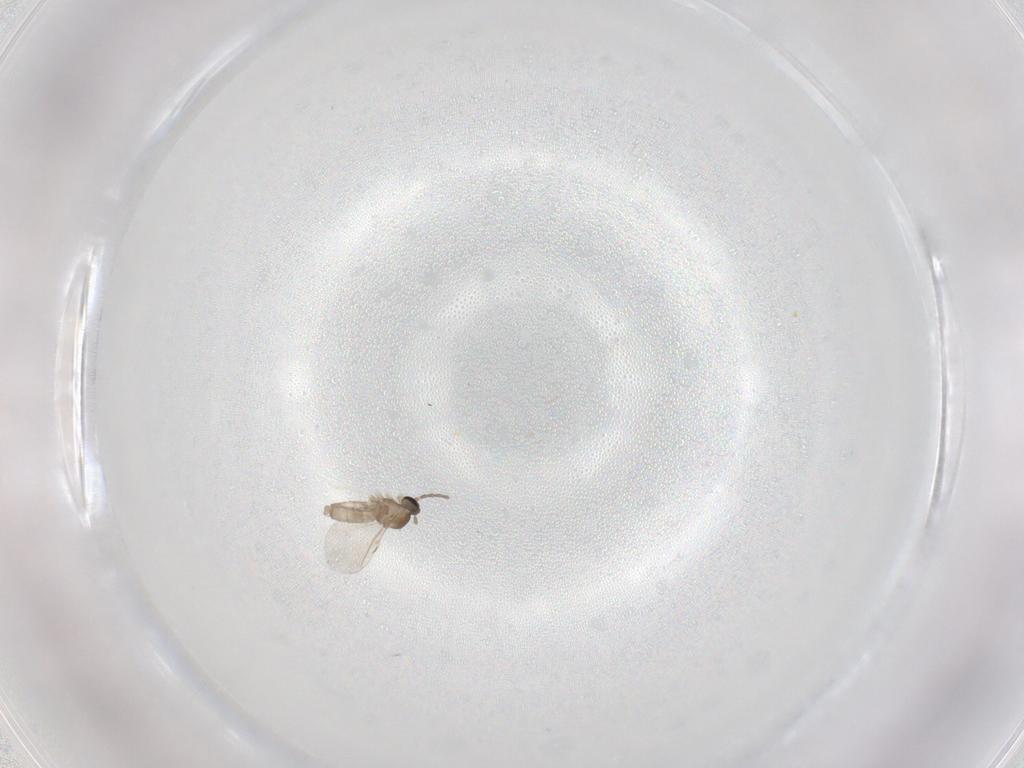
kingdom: Animalia
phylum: Arthropoda
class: Insecta
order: Diptera
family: Cecidomyiidae
